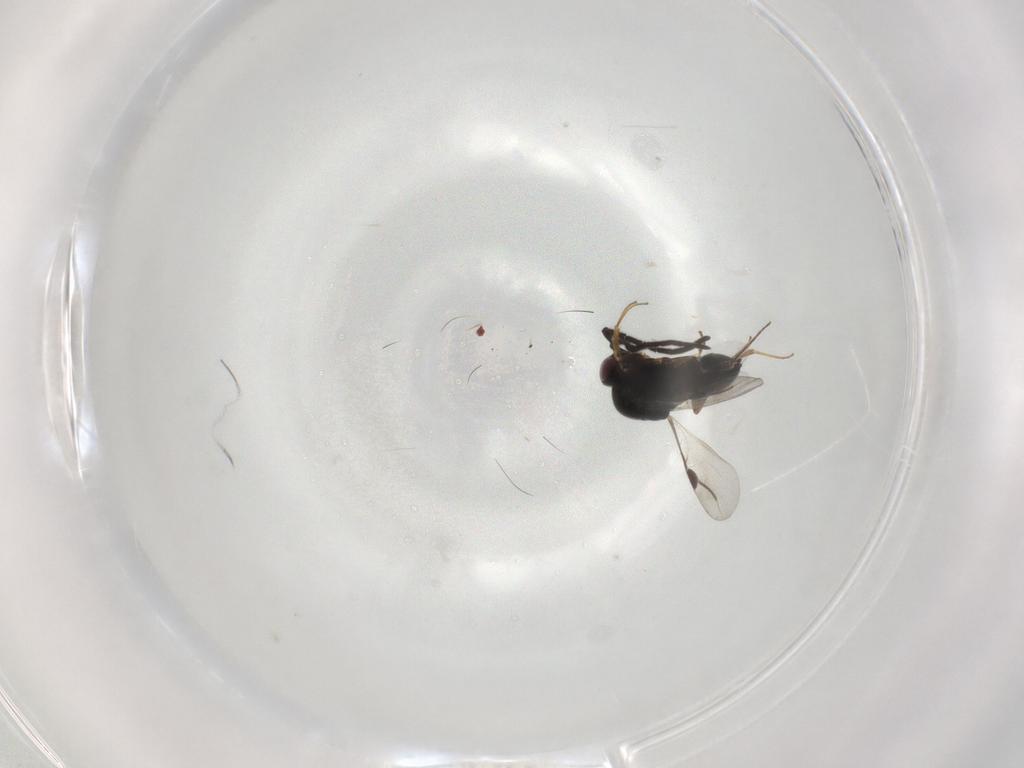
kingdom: Animalia
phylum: Arthropoda
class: Insecta
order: Hymenoptera
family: Megaspilidae
